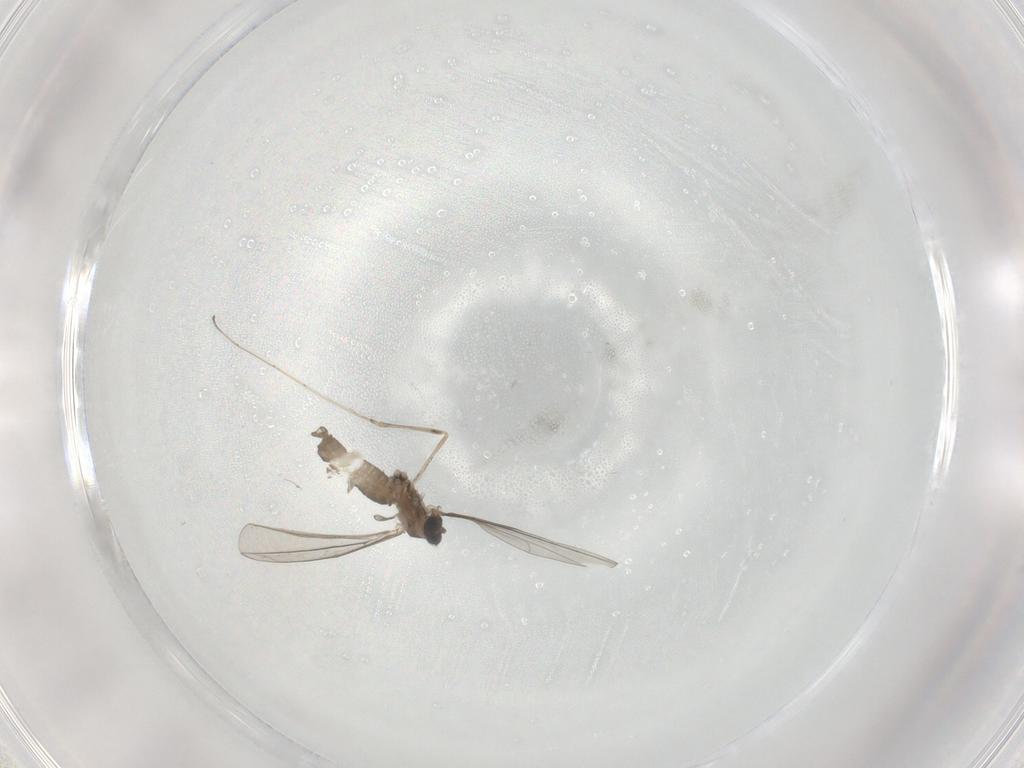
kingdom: Animalia
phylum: Arthropoda
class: Insecta
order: Diptera
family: Cecidomyiidae
